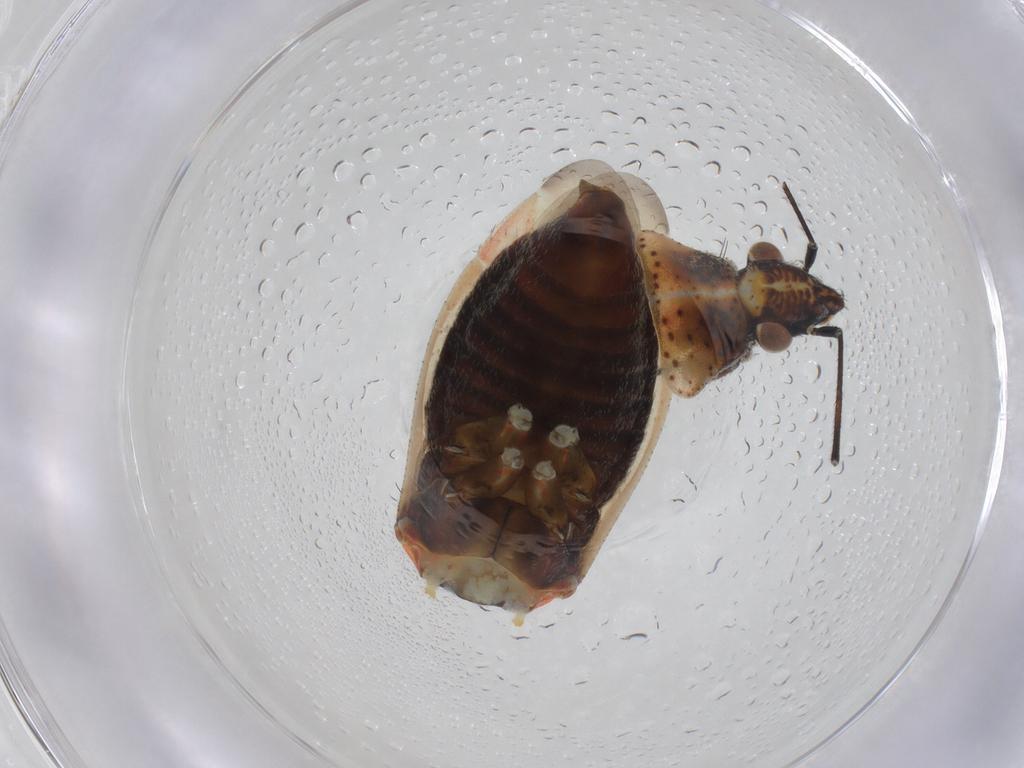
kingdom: Animalia
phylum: Arthropoda
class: Insecta
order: Hemiptera
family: Miridae
